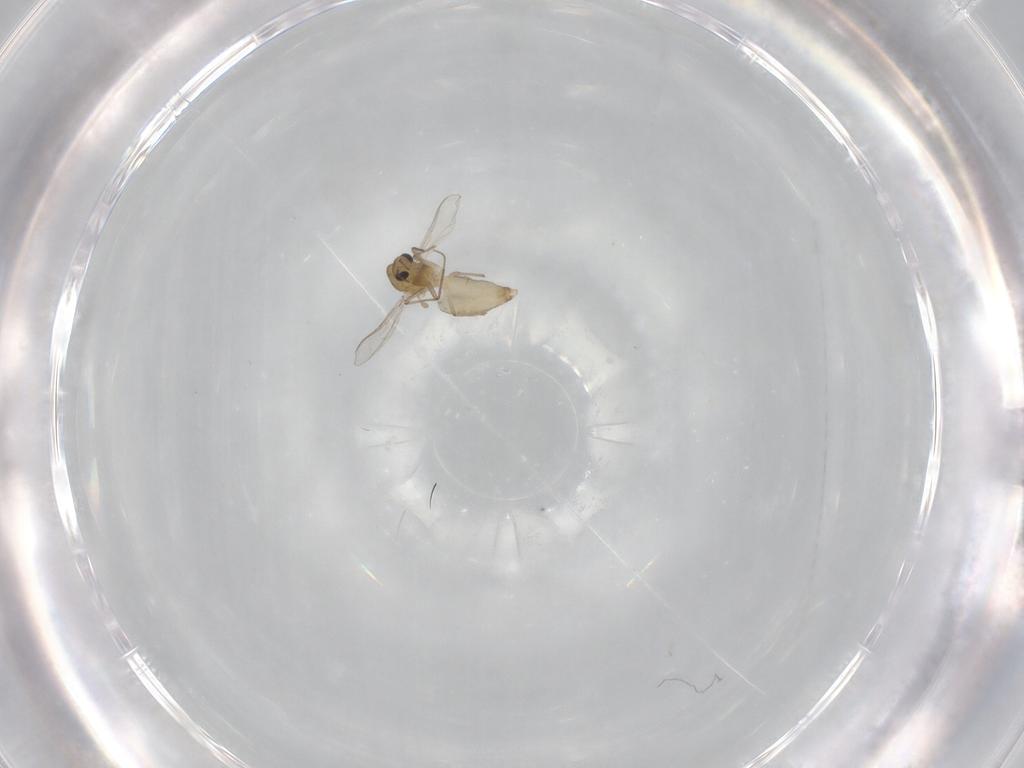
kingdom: Animalia
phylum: Arthropoda
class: Insecta
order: Diptera
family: Chironomidae
